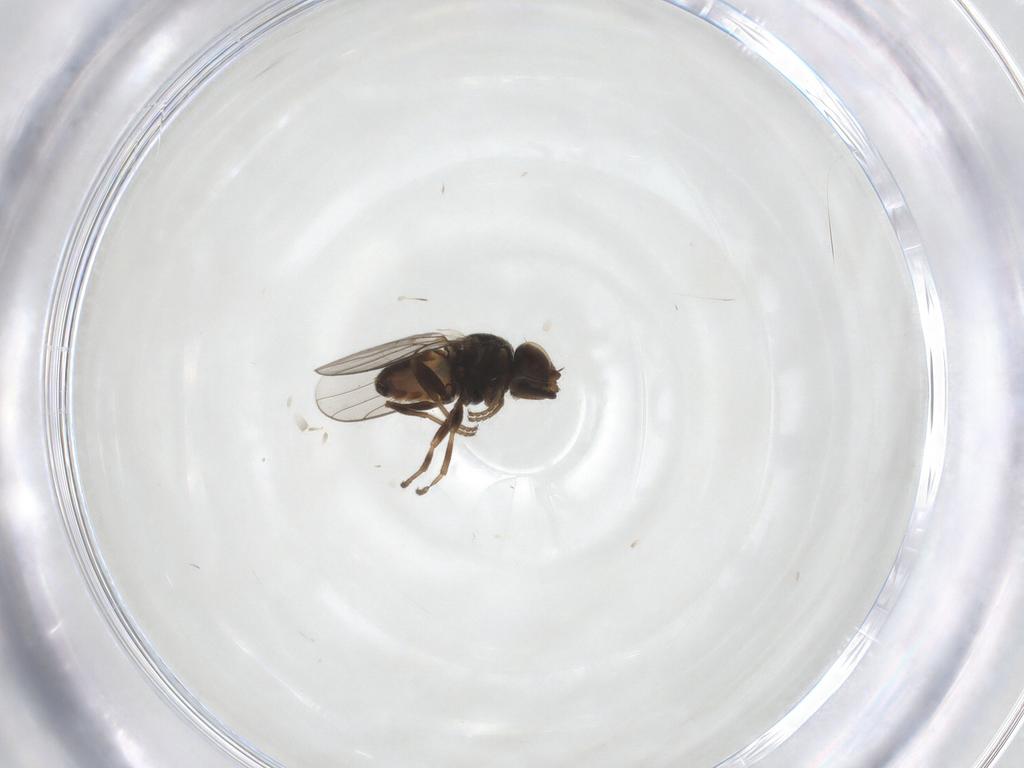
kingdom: Animalia
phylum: Arthropoda
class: Insecta
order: Diptera
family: Chloropidae
